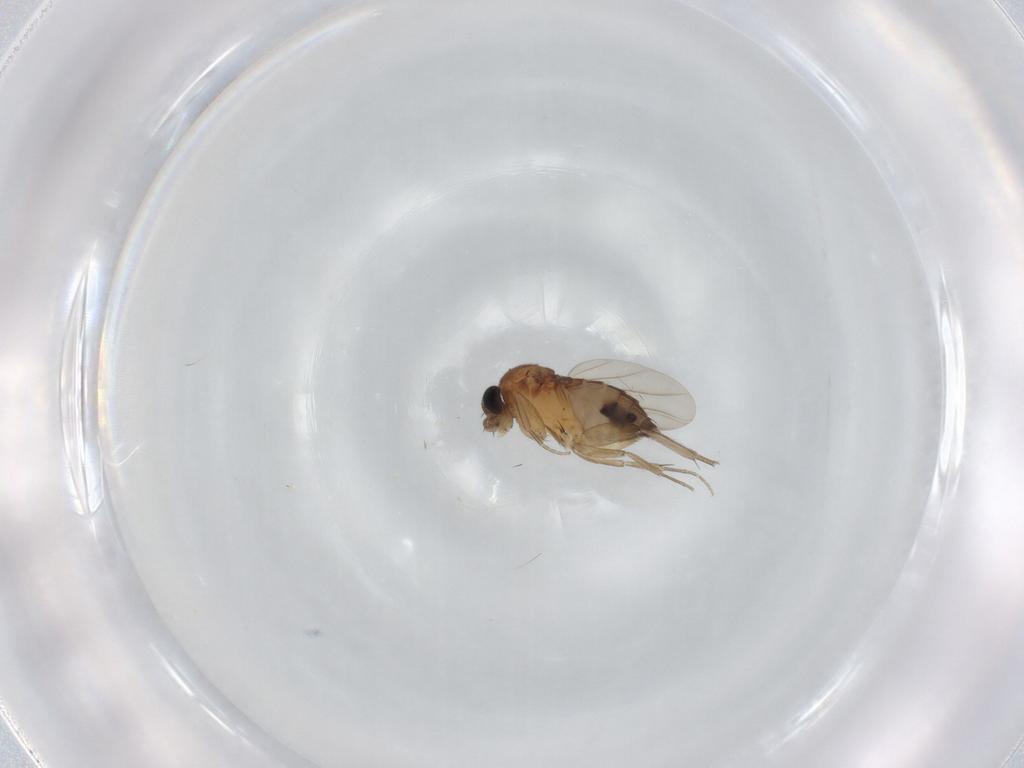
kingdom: Animalia
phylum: Arthropoda
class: Insecta
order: Diptera
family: Phoridae
